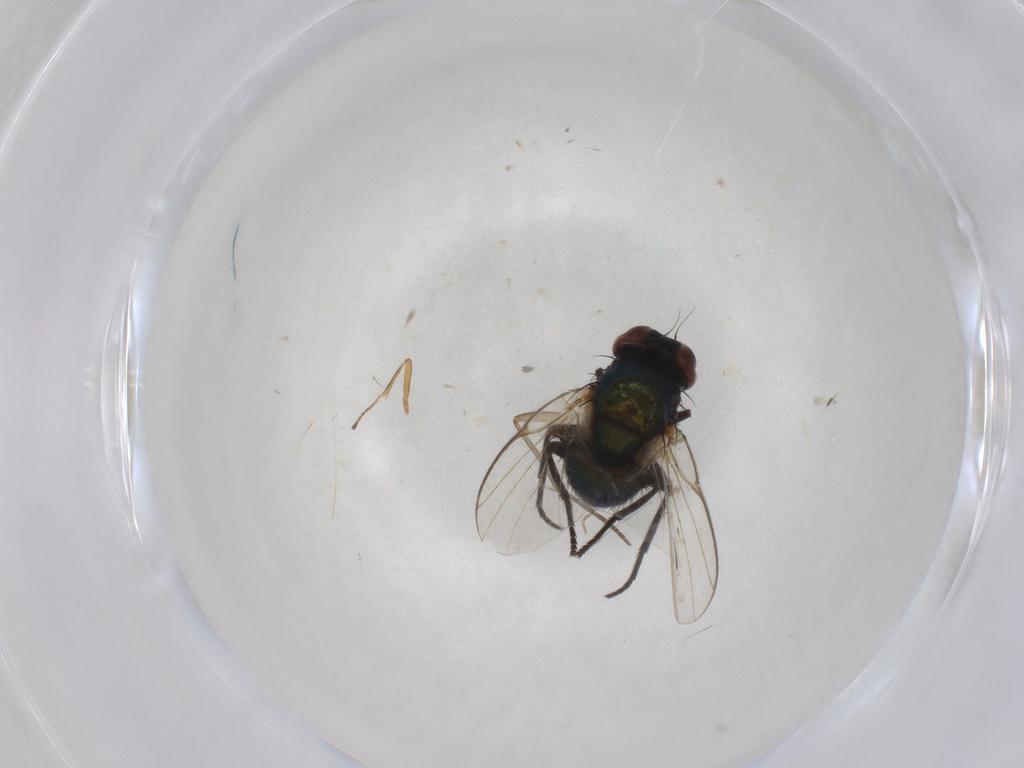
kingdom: Animalia
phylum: Arthropoda
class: Insecta
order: Diptera
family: Agromyzidae
